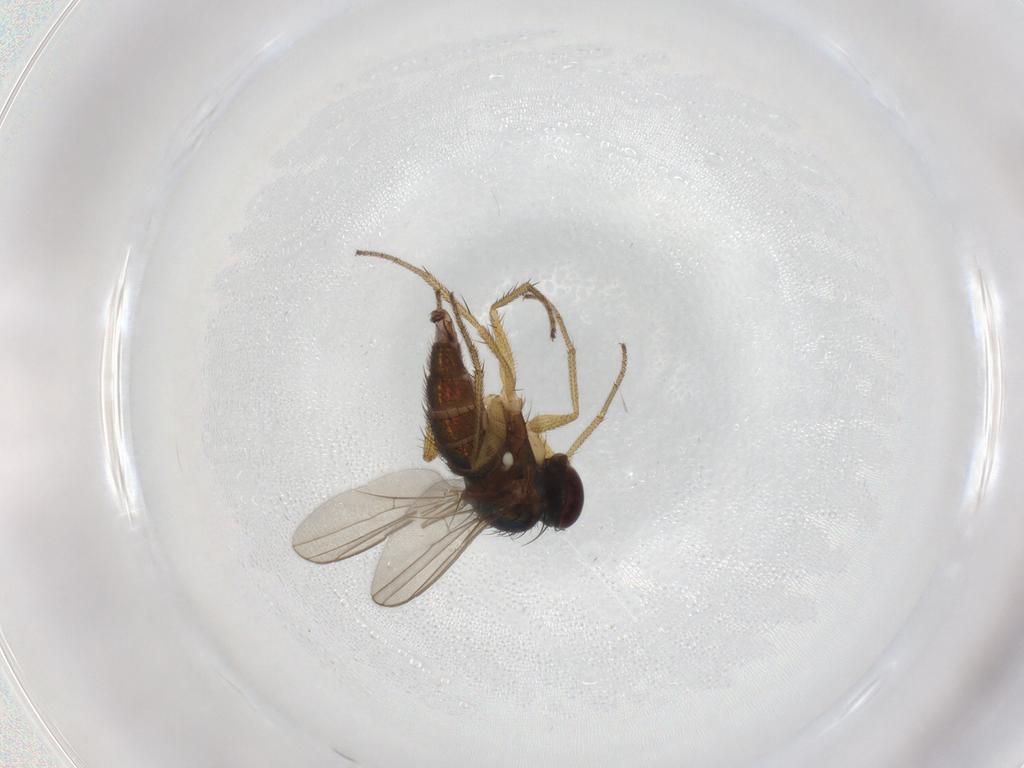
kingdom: Animalia
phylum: Arthropoda
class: Insecta
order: Diptera
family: Dolichopodidae
